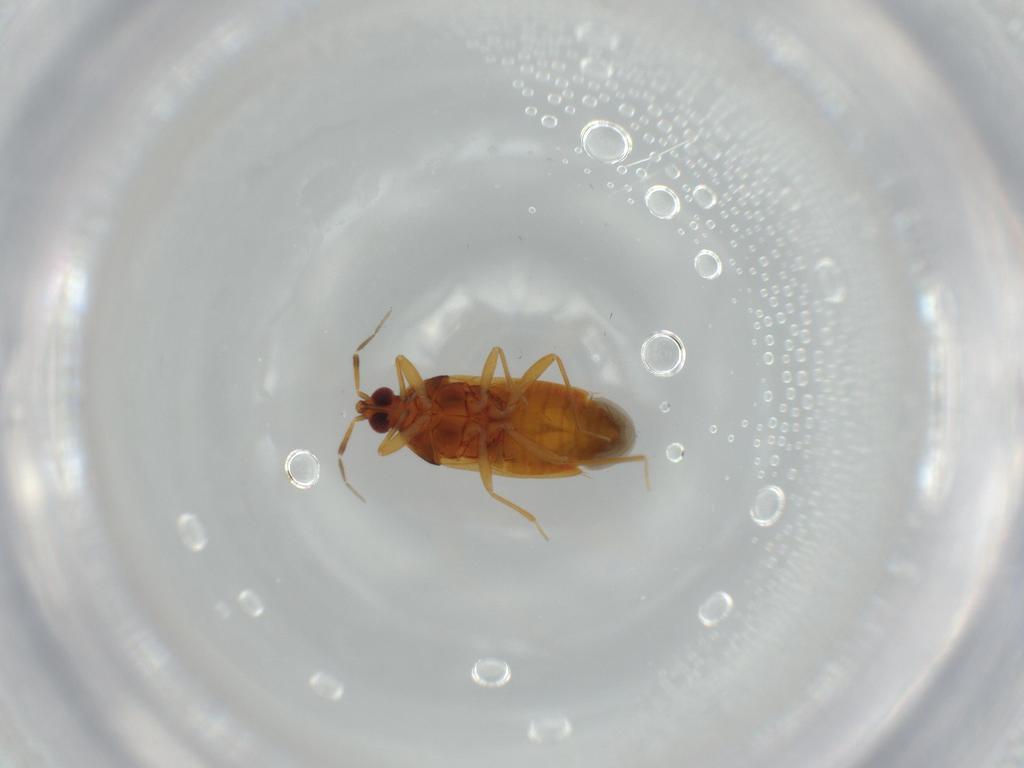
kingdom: Animalia
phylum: Arthropoda
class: Insecta
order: Hemiptera
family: Anthocoridae
